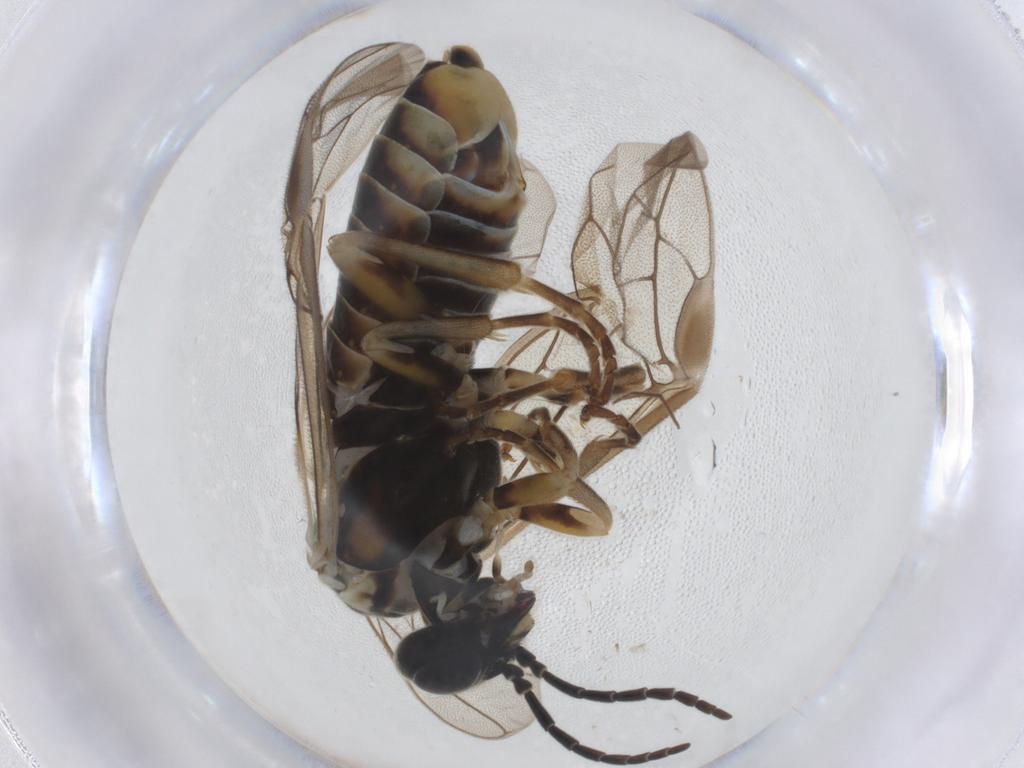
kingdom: Animalia
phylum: Arthropoda
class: Insecta
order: Hymenoptera
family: Tenthredinidae
